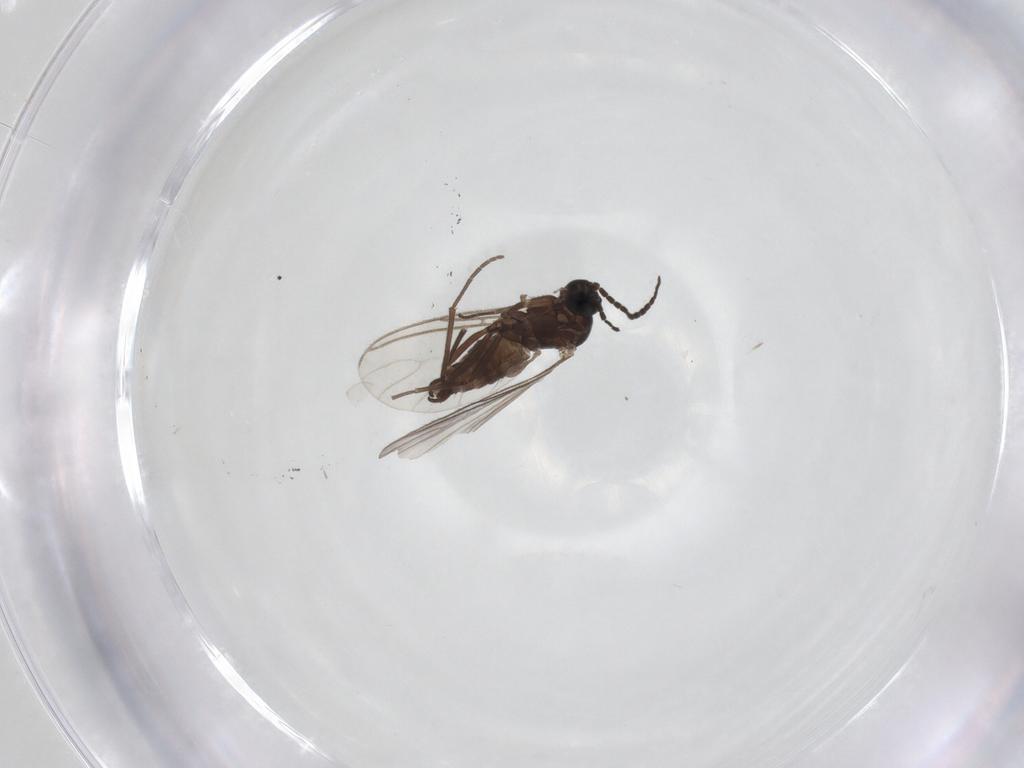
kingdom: Animalia
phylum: Arthropoda
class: Insecta
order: Diptera
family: Sciaridae
